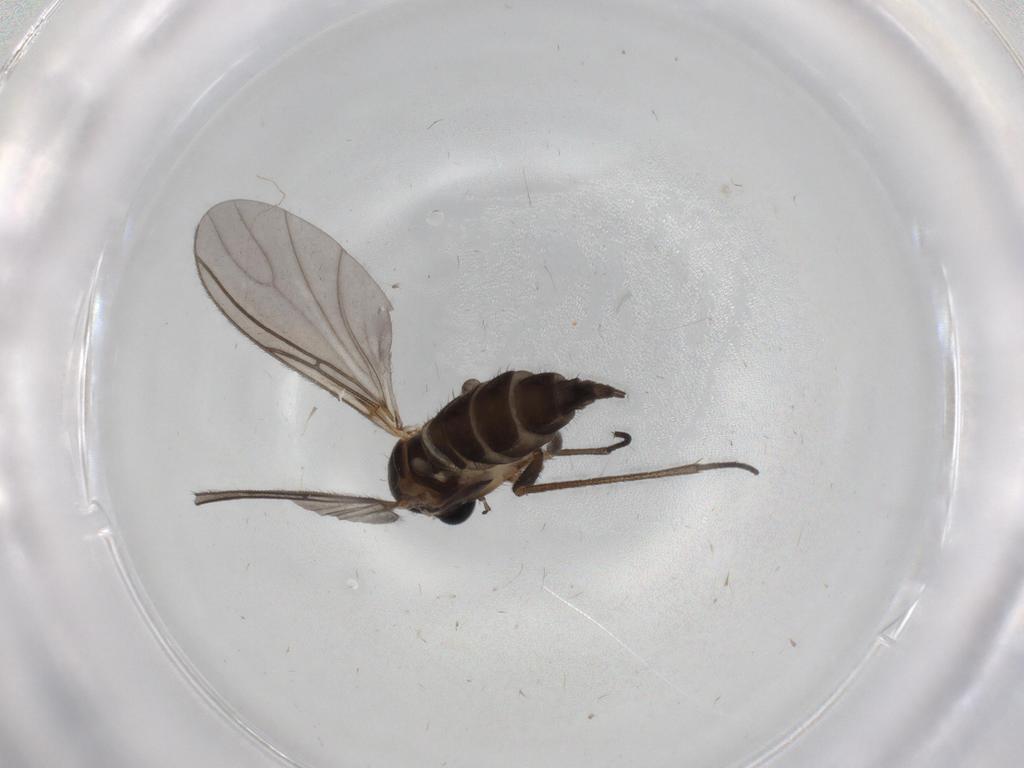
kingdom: Animalia
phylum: Arthropoda
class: Insecta
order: Diptera
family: Sciaridae
